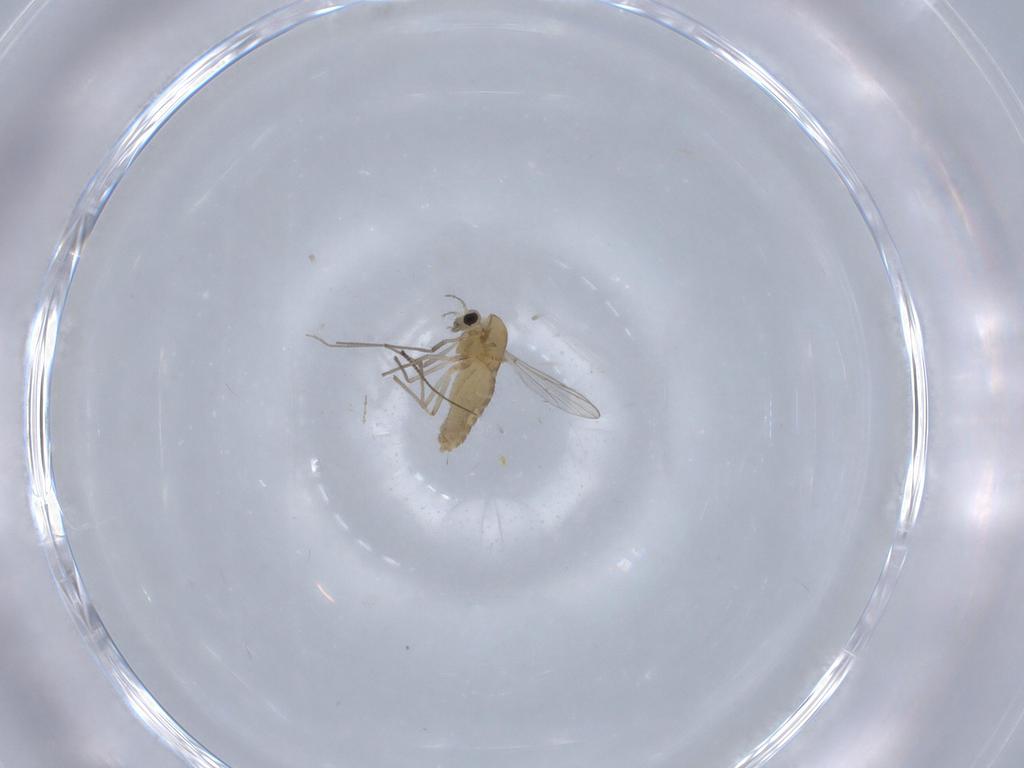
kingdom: Animalia
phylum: Arthropoda
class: Insecta
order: Diptera
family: Chironomidae
